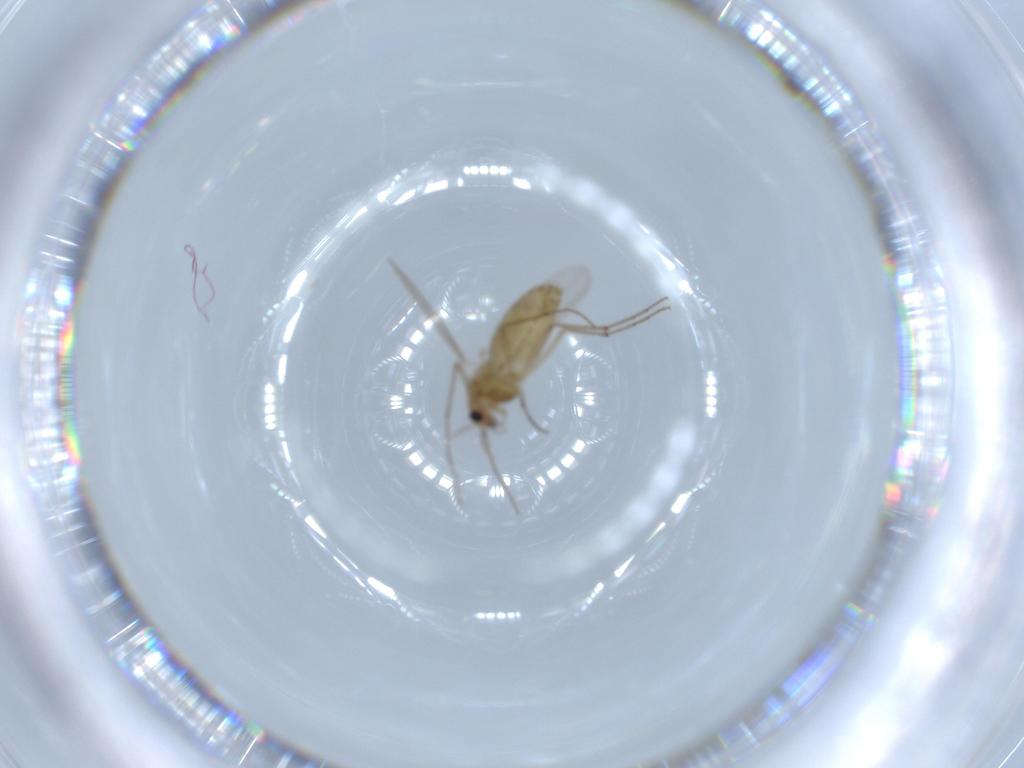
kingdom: Animalia
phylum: Arthropoda
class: Insecta
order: Diptera
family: Chironomidae
